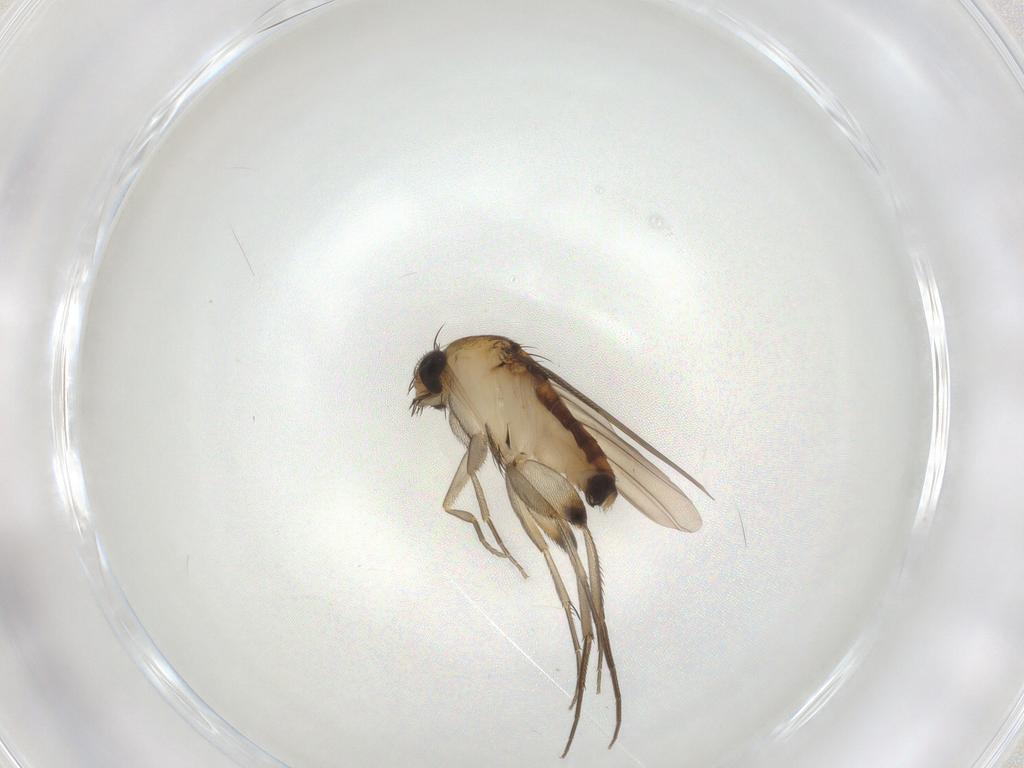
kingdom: Animalia
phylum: Arthropoda
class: Insecta
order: Diptera
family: Phoridae
